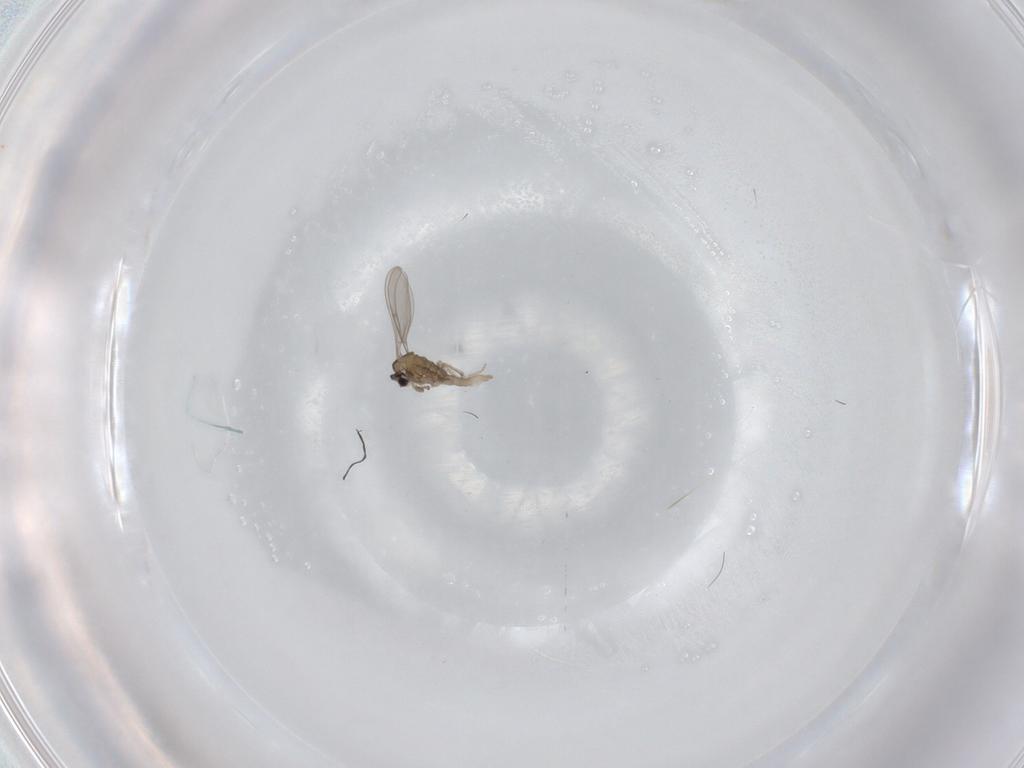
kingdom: Animalia
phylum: Arthropoda
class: Insecta
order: Diptera
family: Cecidomyiidae
